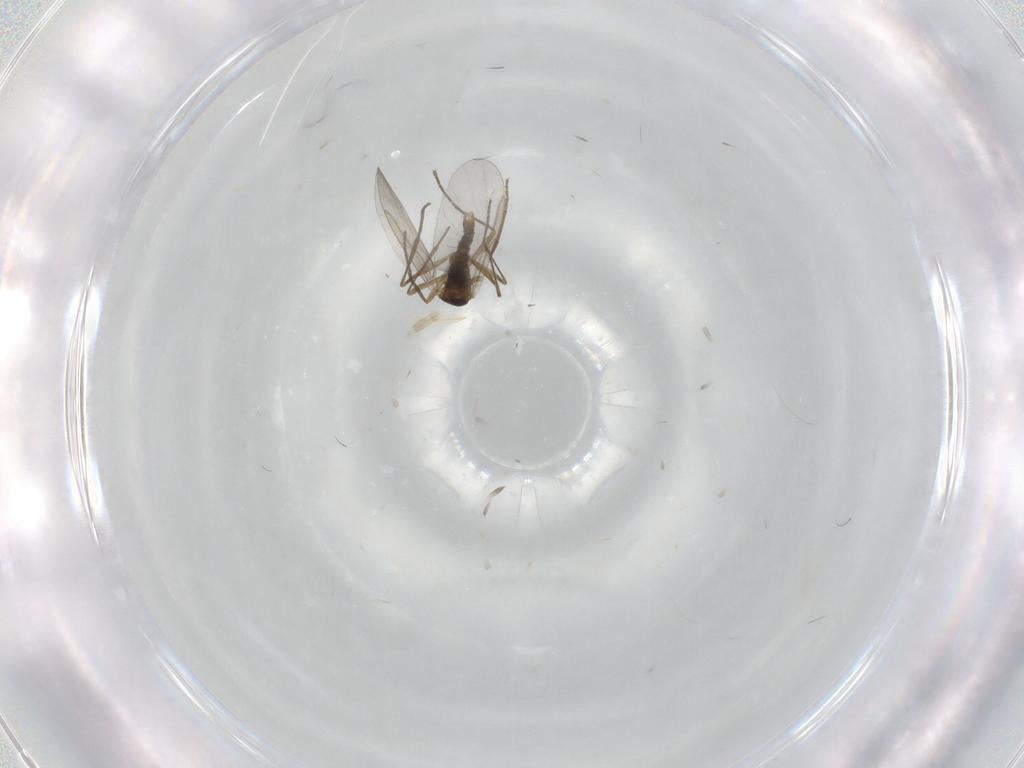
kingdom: Animalia
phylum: Arthropoda
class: Insecta
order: Diptera
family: Cecidomyiidae
